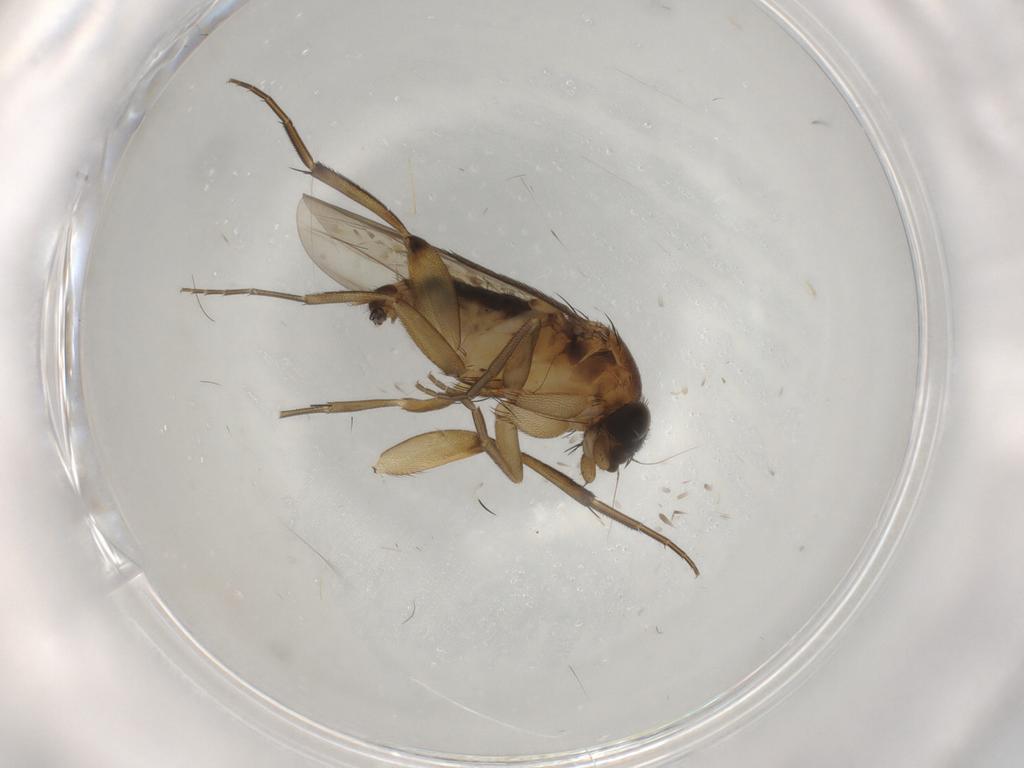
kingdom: Animalia
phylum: Arthropoda
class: Insecta
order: Diptera
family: Phoridae
